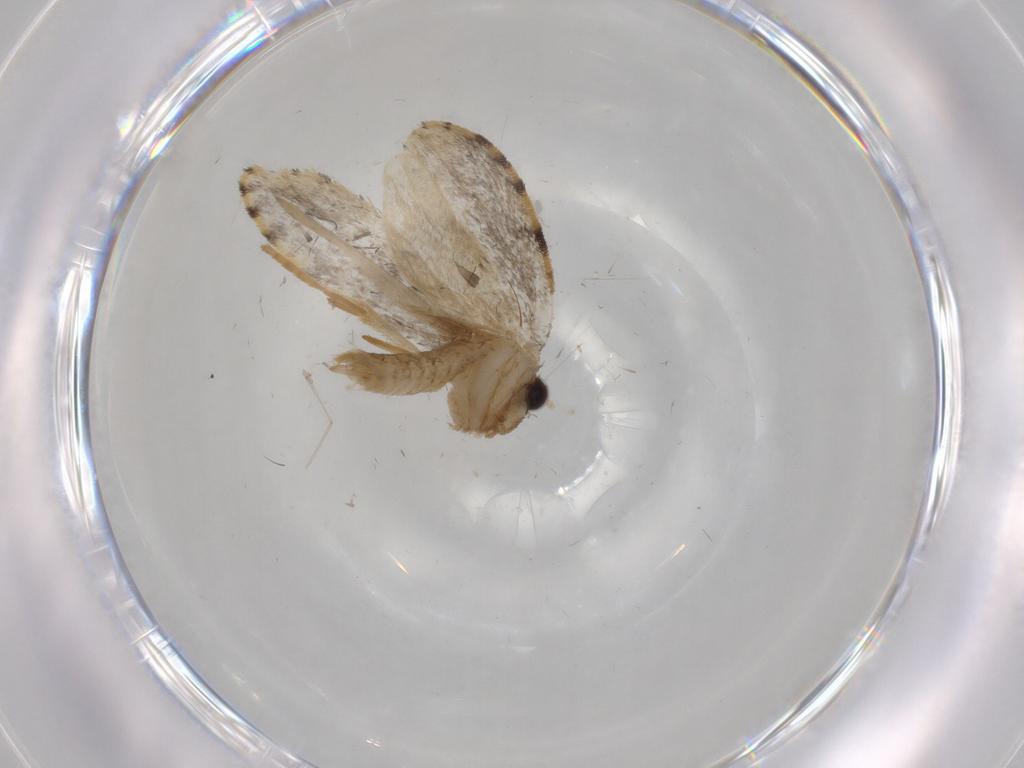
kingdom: Animalia
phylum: Arthropoda
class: Insecta
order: Lepidoptera
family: Psychidae
